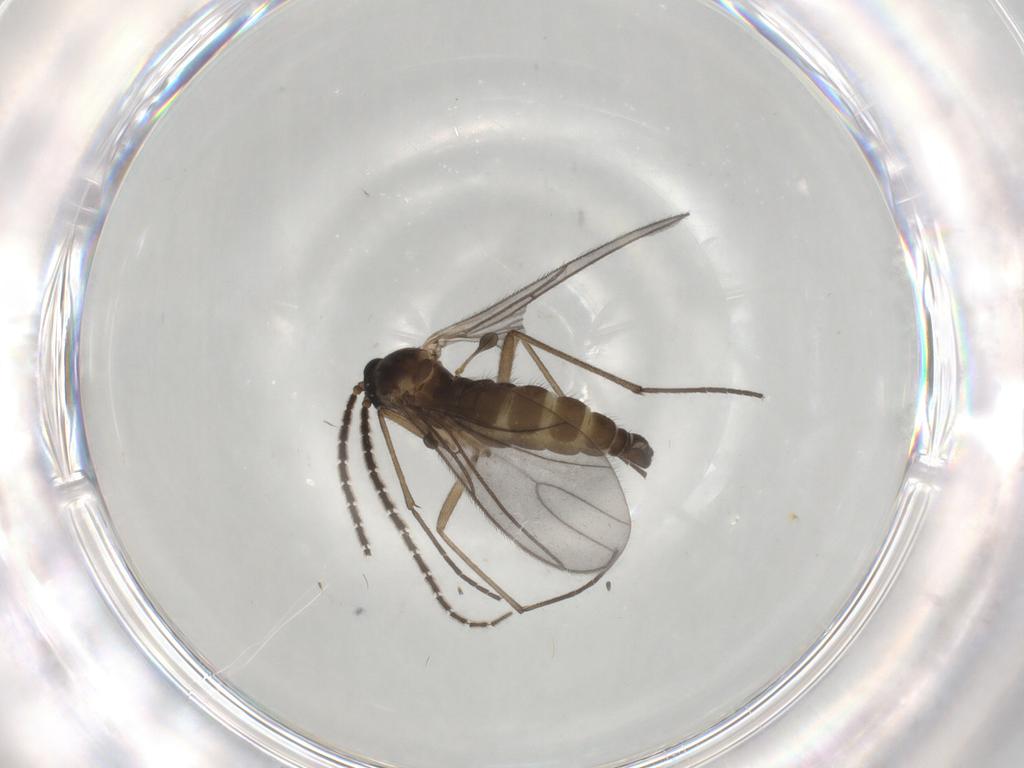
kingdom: Animalia
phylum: Arthropoda
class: Insecta
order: Diptera
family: Sciaridae
